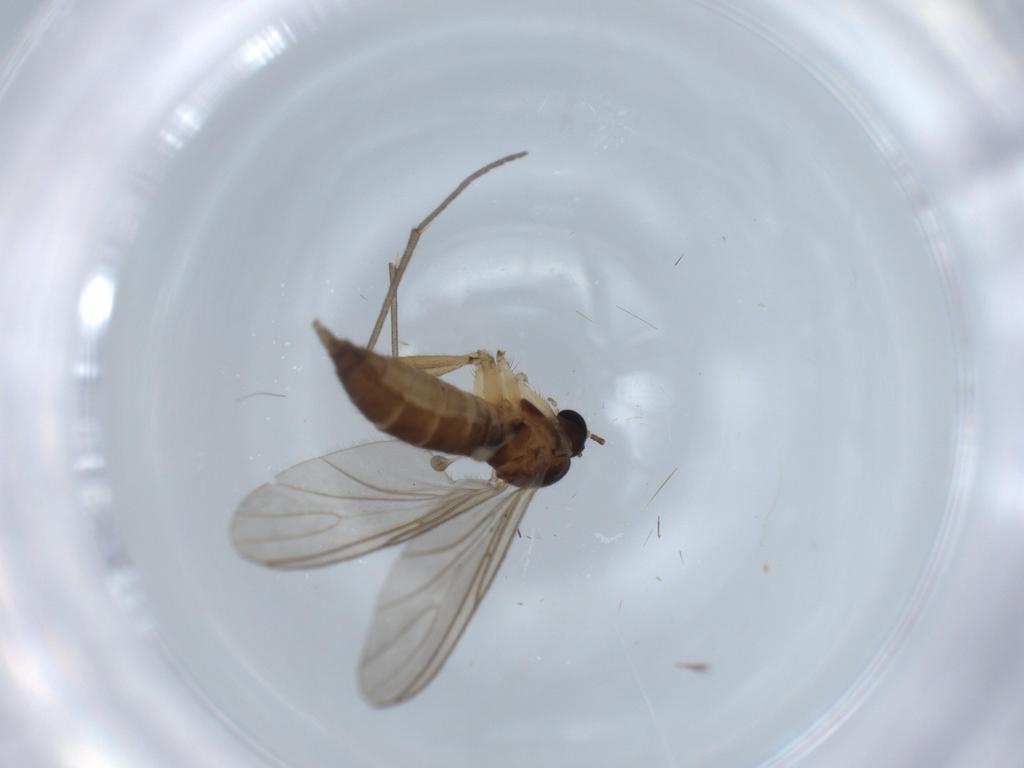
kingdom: Animalia
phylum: Arthropoda
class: Insecta
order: Diptera
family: Sciaridae
